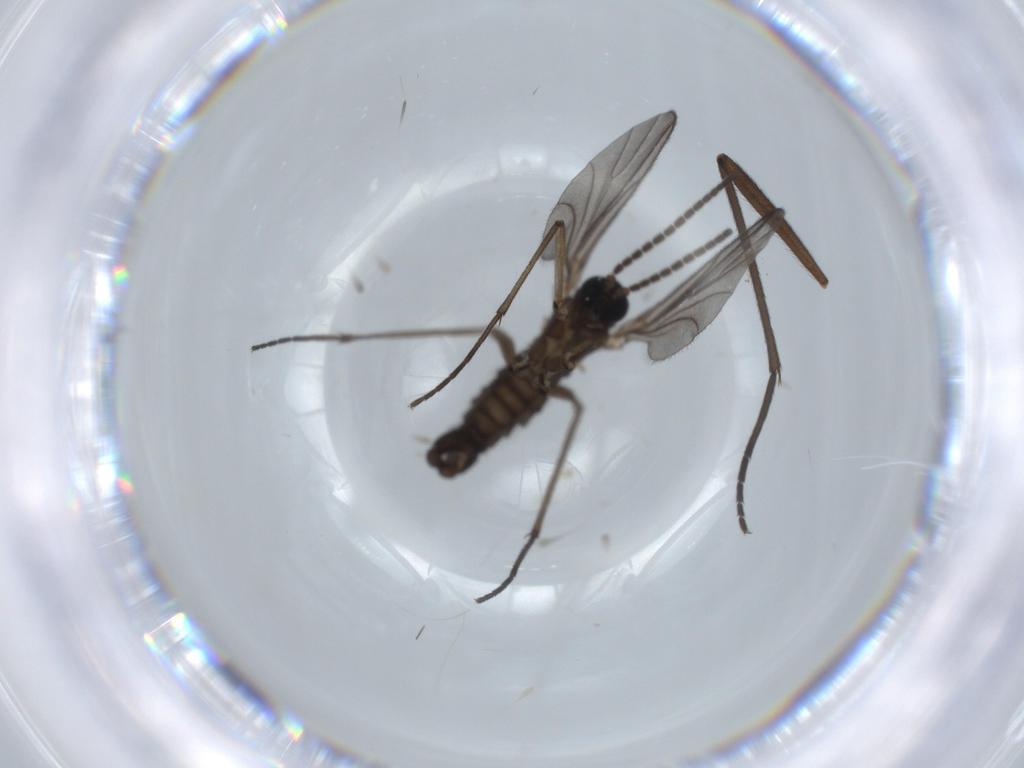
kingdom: Animalia
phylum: Arthropoda
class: Insecta
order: Diptera
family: Sciaridae
